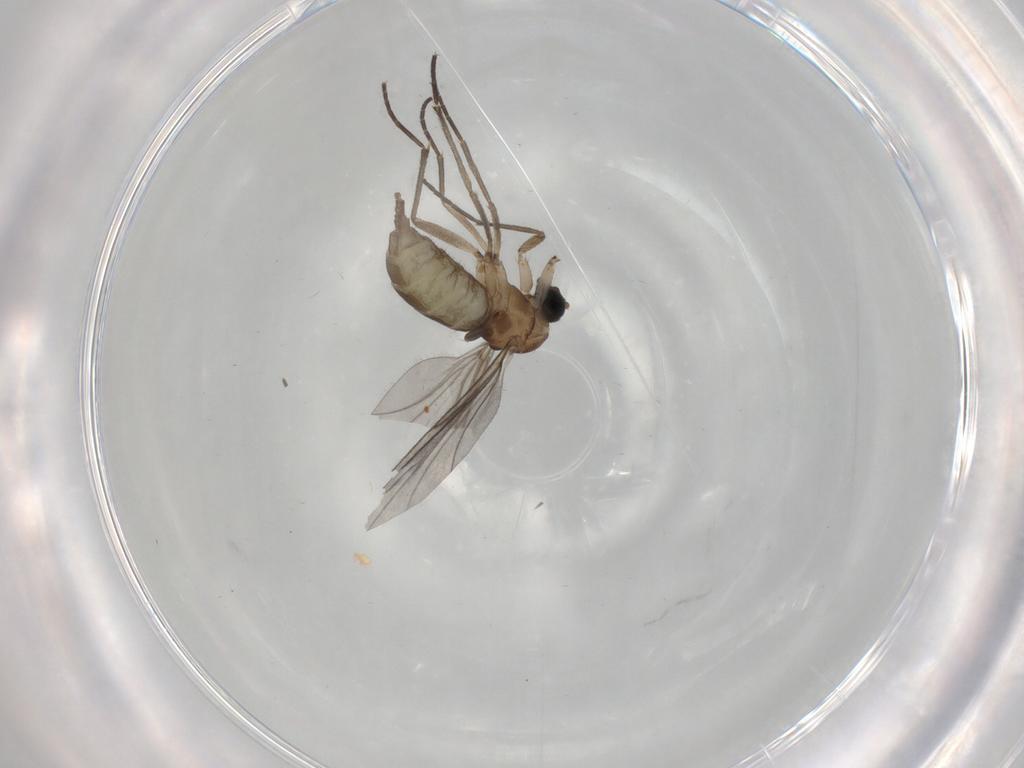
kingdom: Animalia
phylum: Arthropoda
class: Insecta
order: Diptera
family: Sciaridae
